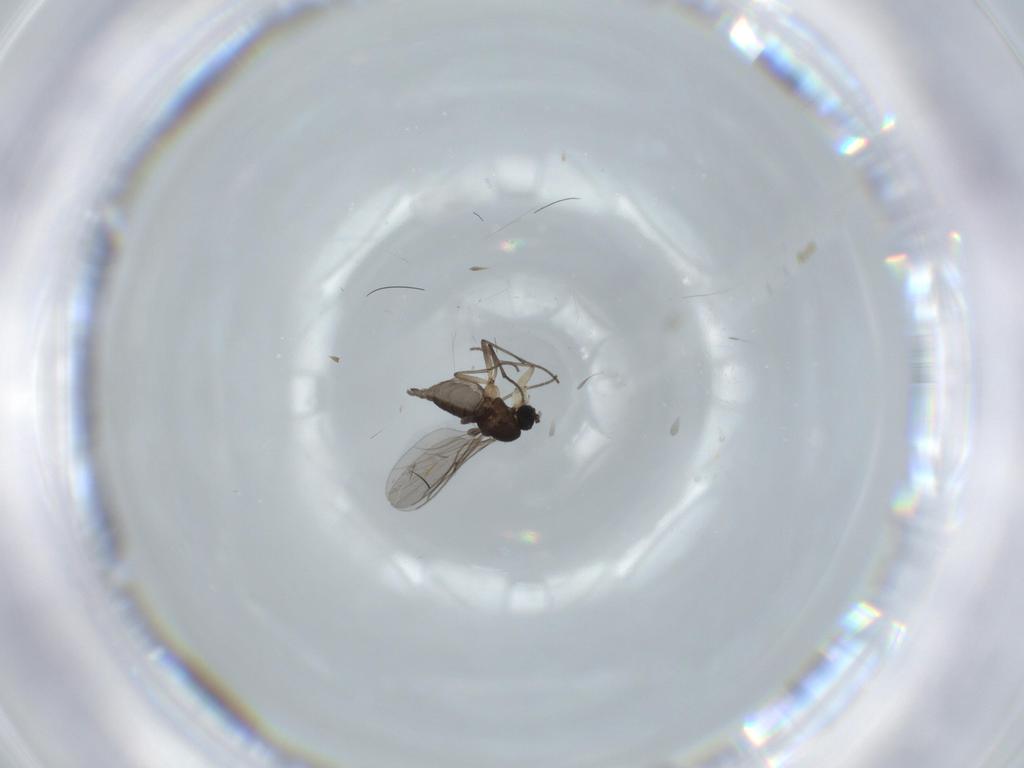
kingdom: Animalia
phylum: Arthropoda
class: Insecta
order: Diptera
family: Sciaridae
